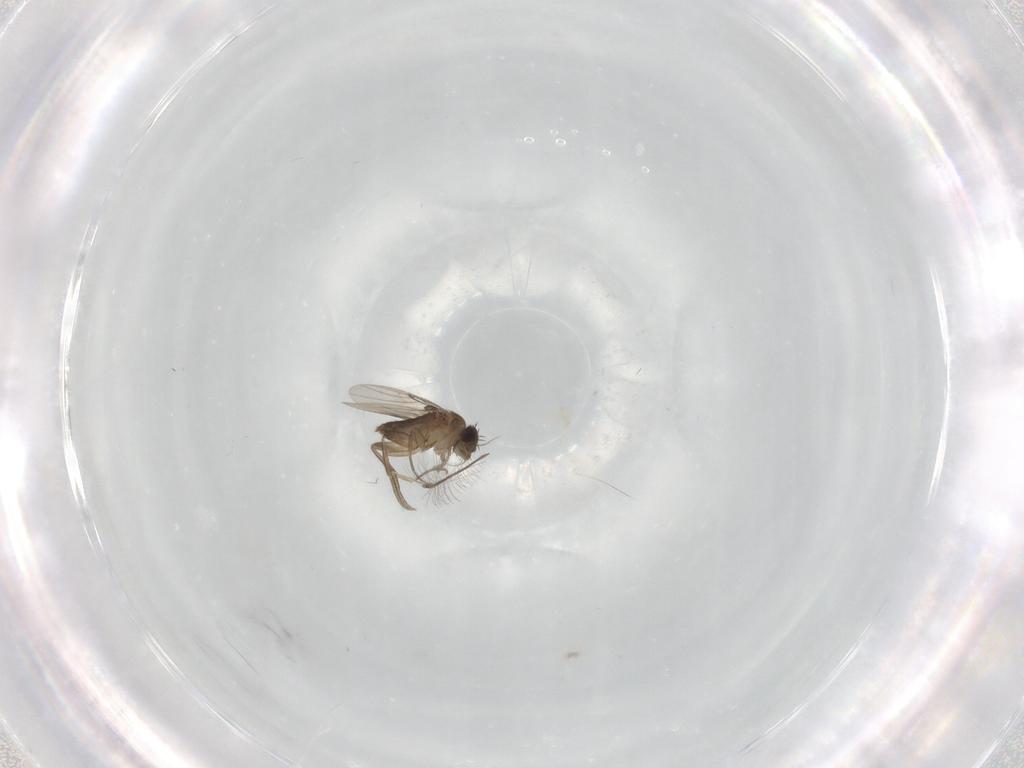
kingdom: Animalia
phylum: Arthropoda
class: Insecta
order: Diptera
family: Chironomidae
